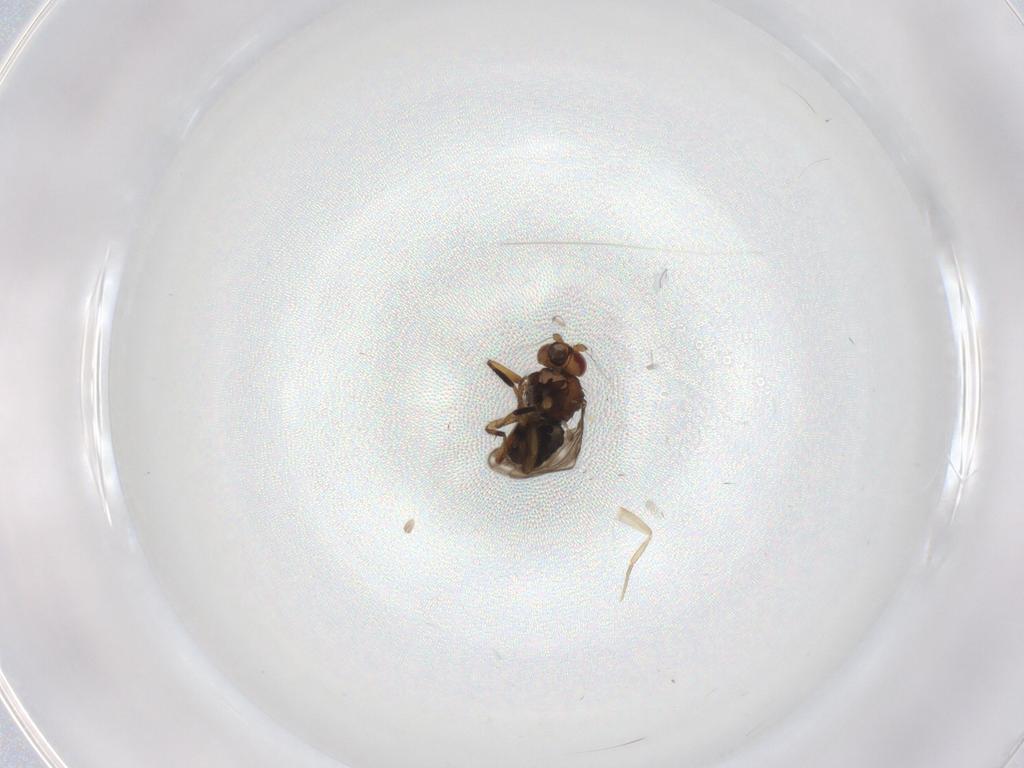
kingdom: Animalia
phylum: Arthropoda
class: Insecta
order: Diptera
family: Sphaeroceridae
